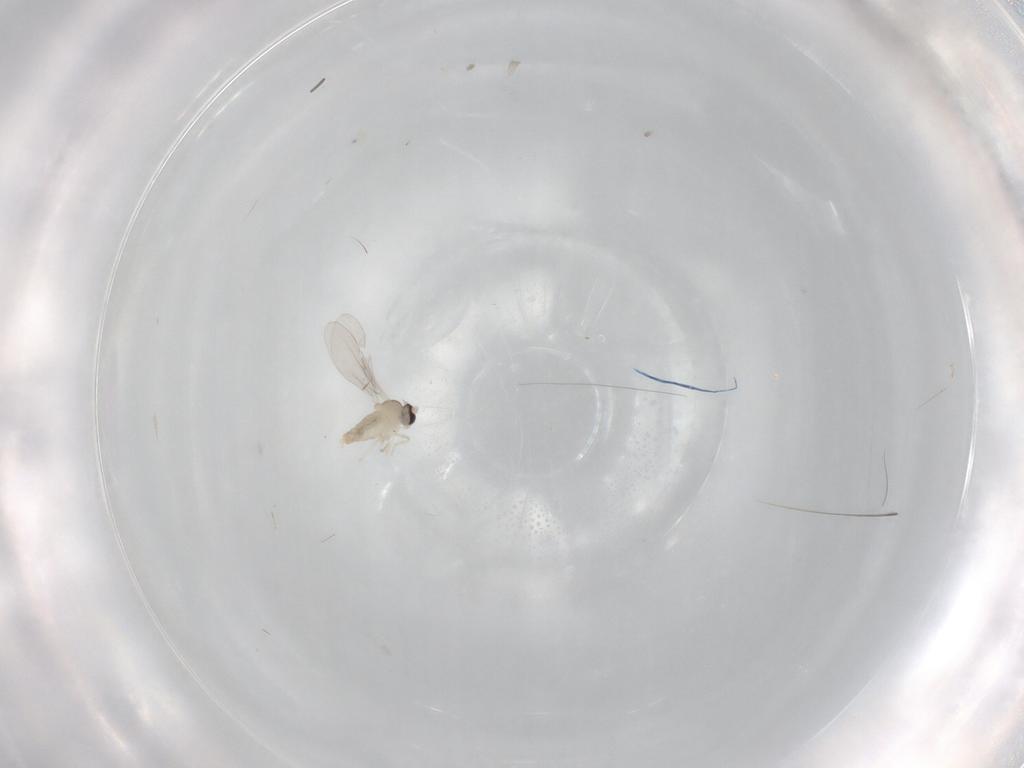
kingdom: Animalia
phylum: Arthropoda
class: Insecta
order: Diptera
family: Cecidomyiidae
